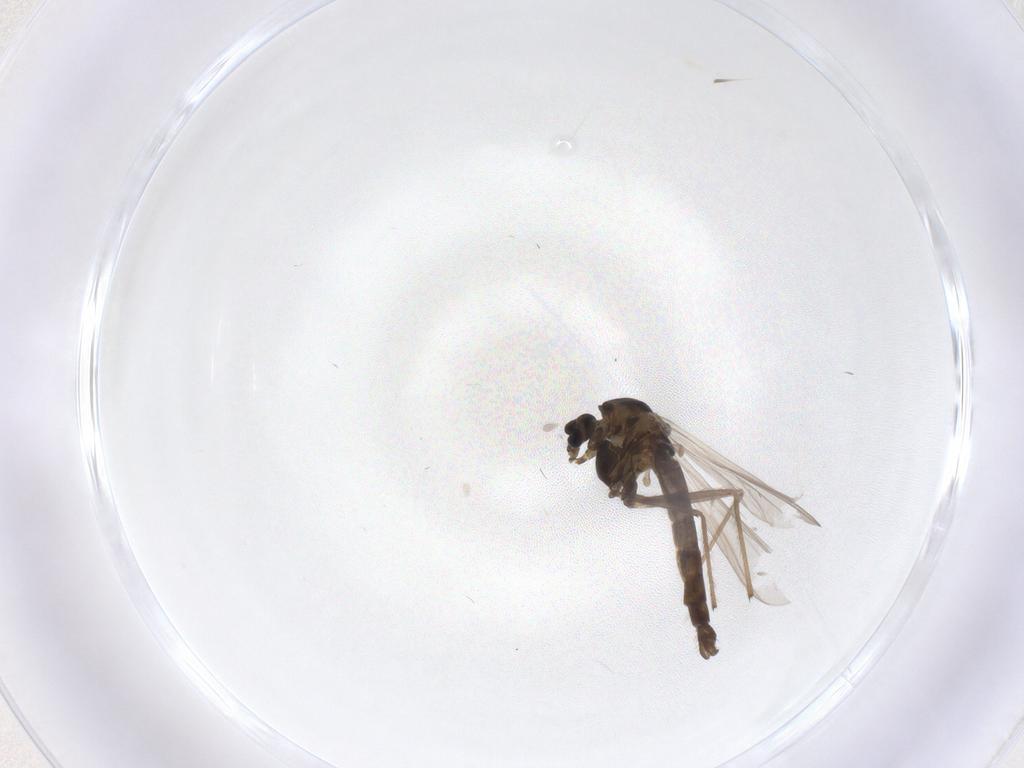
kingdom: Animalia
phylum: Arthropoda
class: Insecta
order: Diptera
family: Chironomidae
